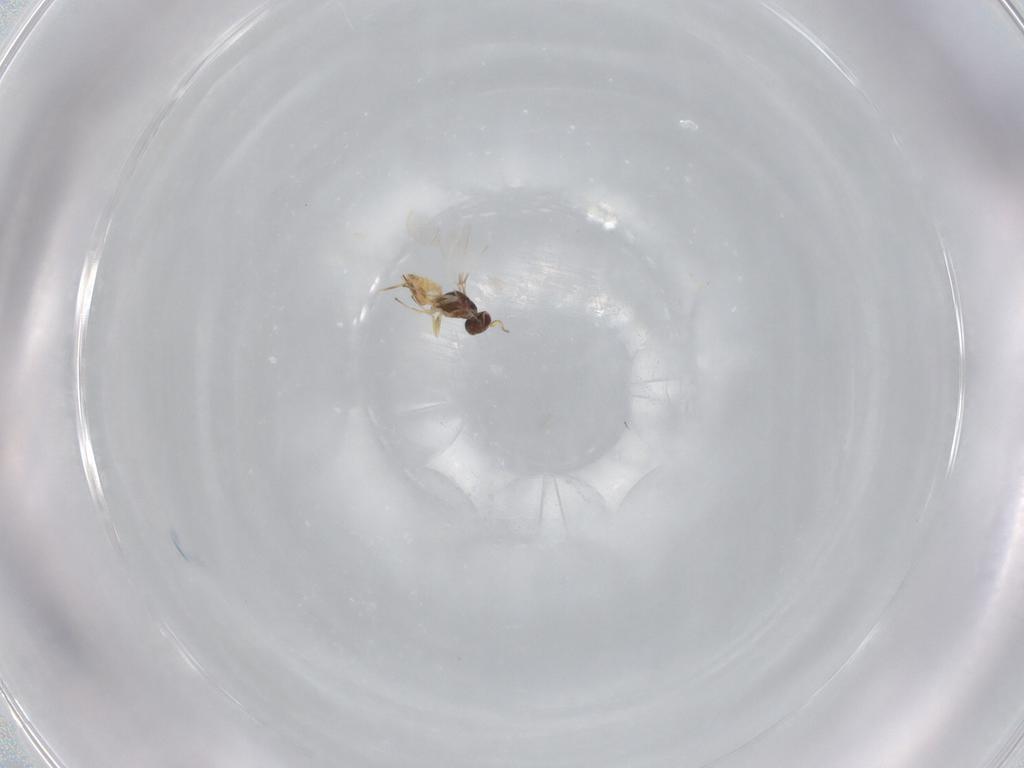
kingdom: Animalia
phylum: Arthropoda
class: Insecta
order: Hymenoptera
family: Mymaridae
